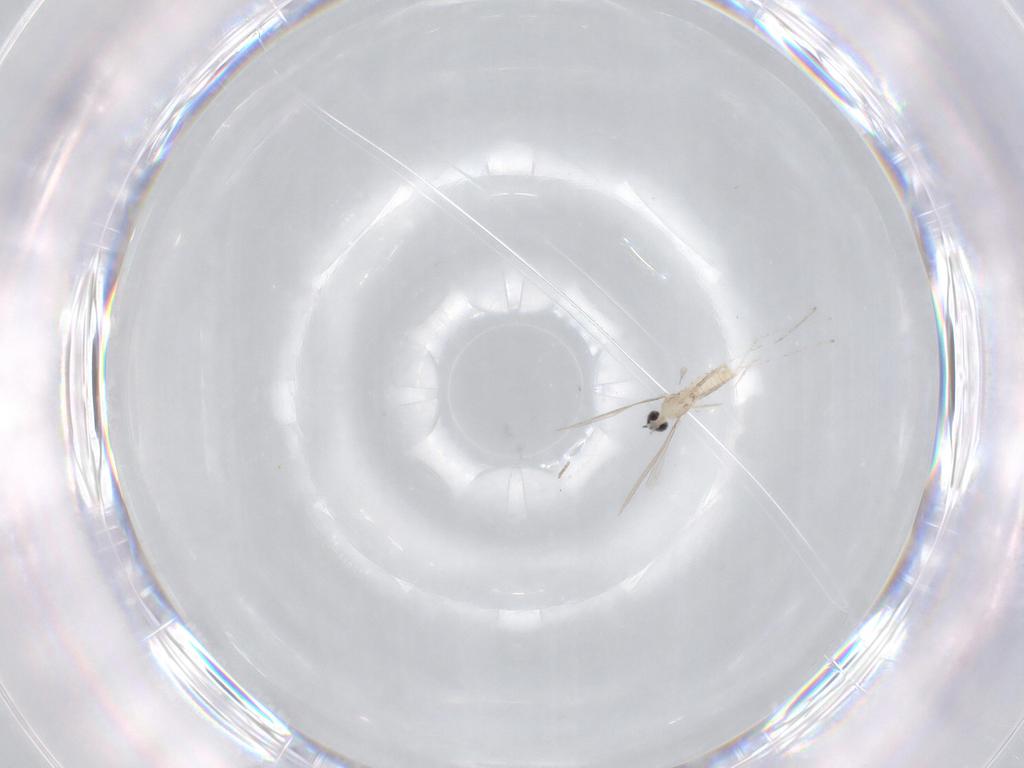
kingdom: Animalia
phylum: Arthropoda
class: Insecta
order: Diptera
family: Cecidomyiidae
